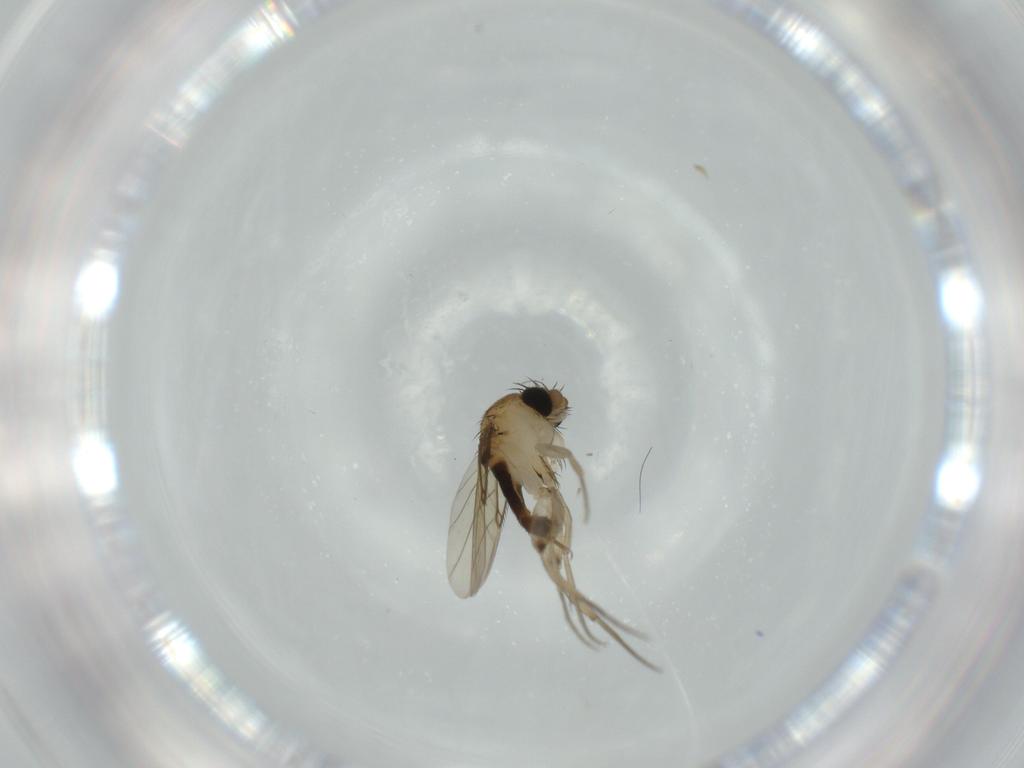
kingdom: Animalia
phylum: Arthropoda
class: Insecta
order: Diptera
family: Phoridae
